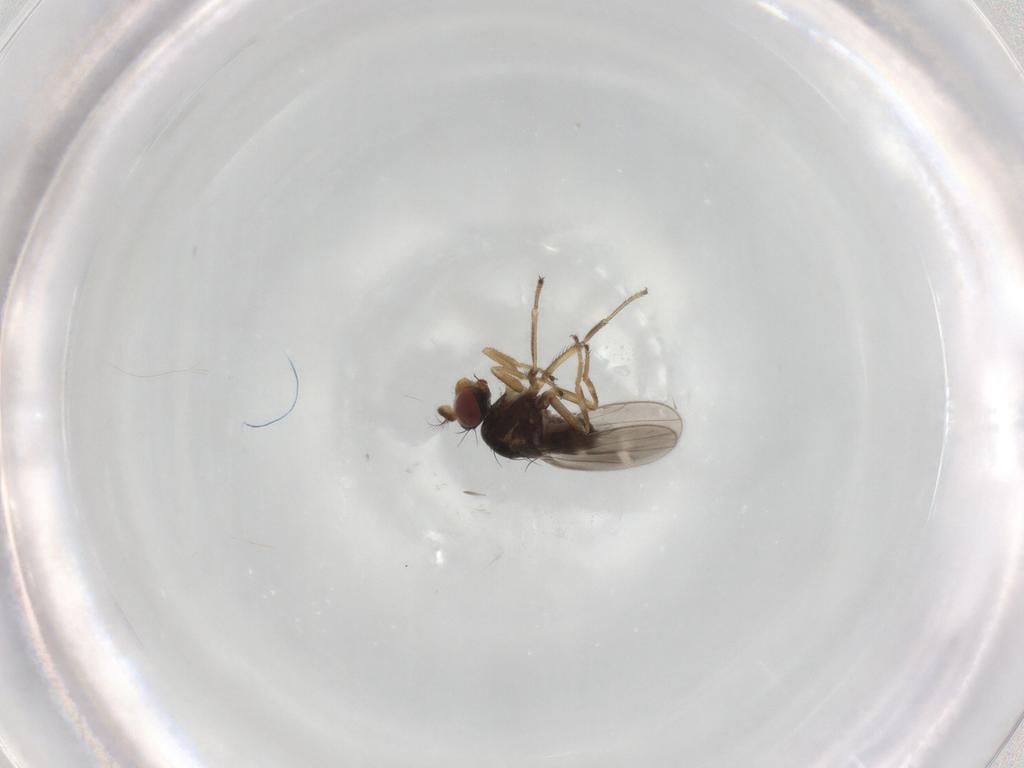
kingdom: Animalia
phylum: Arthropoda
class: Insecta
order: Diptera
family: Ephydridae
